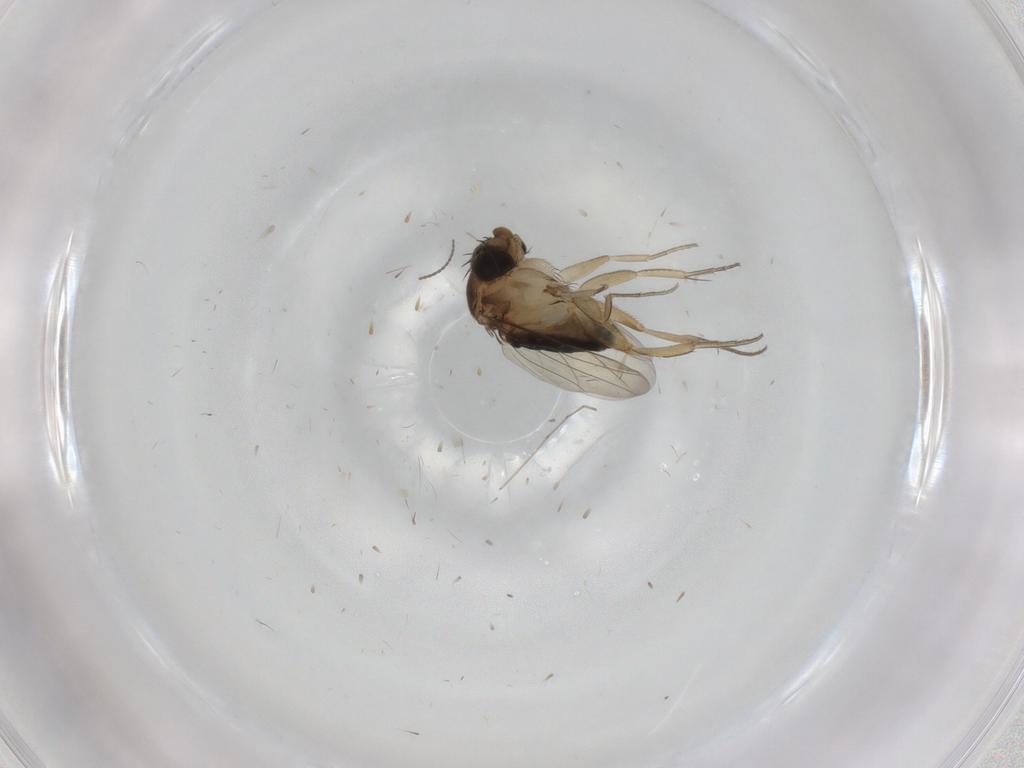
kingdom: Animalia
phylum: Arthropoda
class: Insecta
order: Diptera
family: Phoridae
